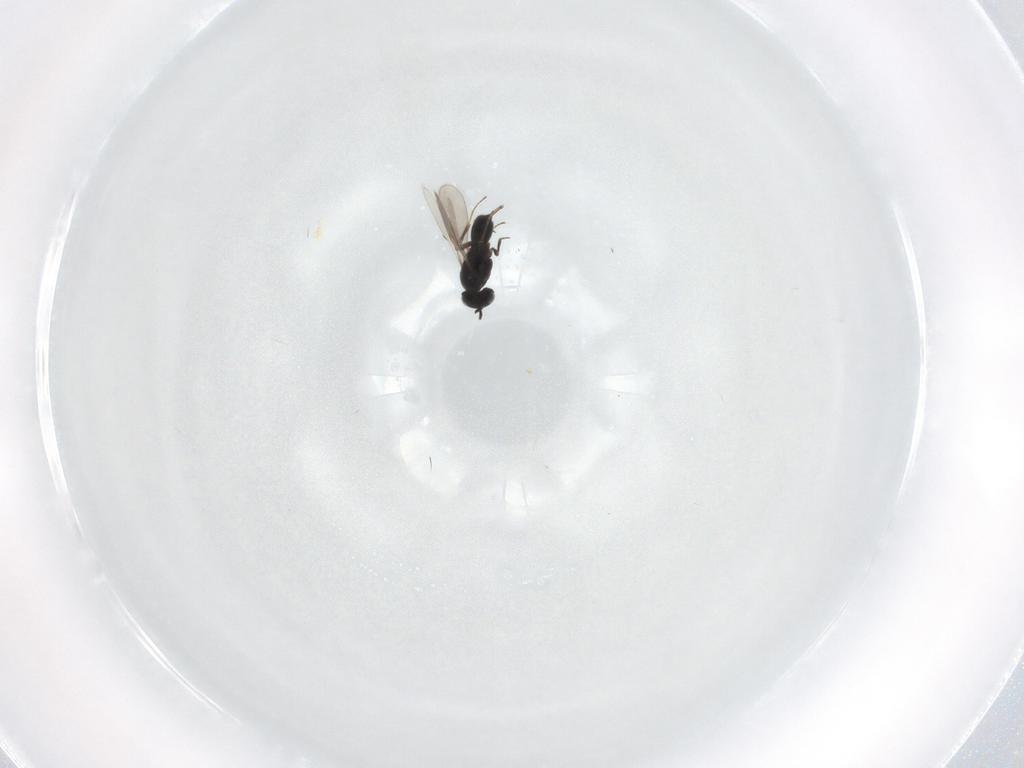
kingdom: Animalia
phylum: Arthropoda
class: Insecta
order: Hymenoptera
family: Scelionidae
